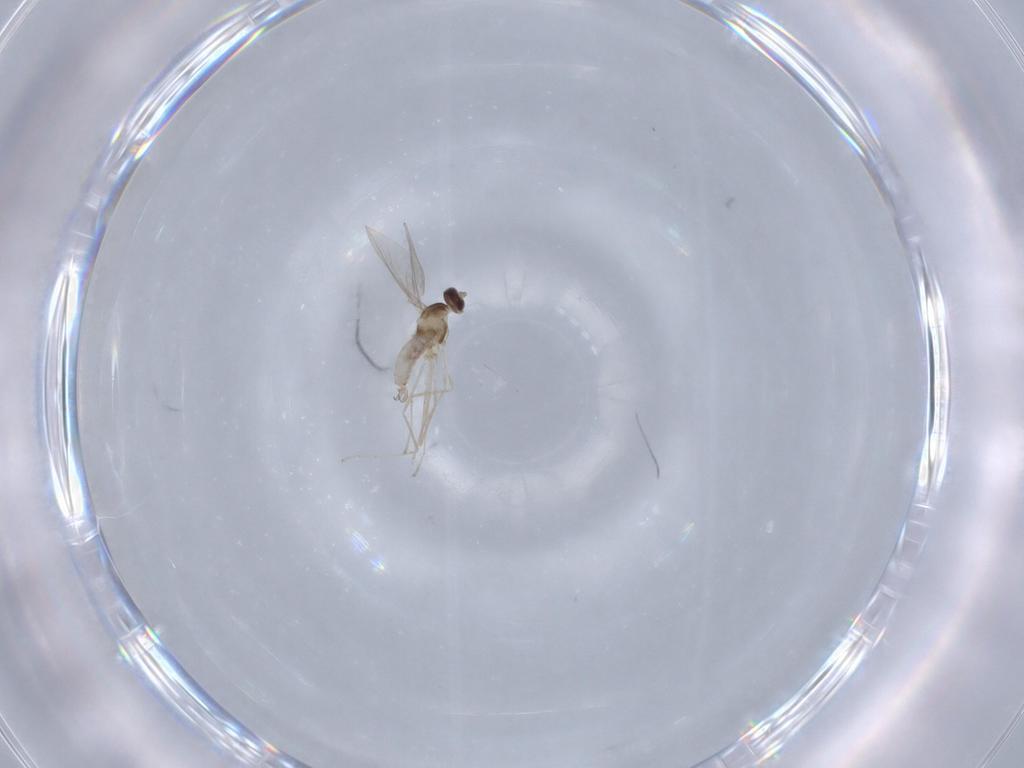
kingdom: Animalia
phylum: Arthropoda
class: Insecta
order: Diptera
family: Cecidomyiidae
